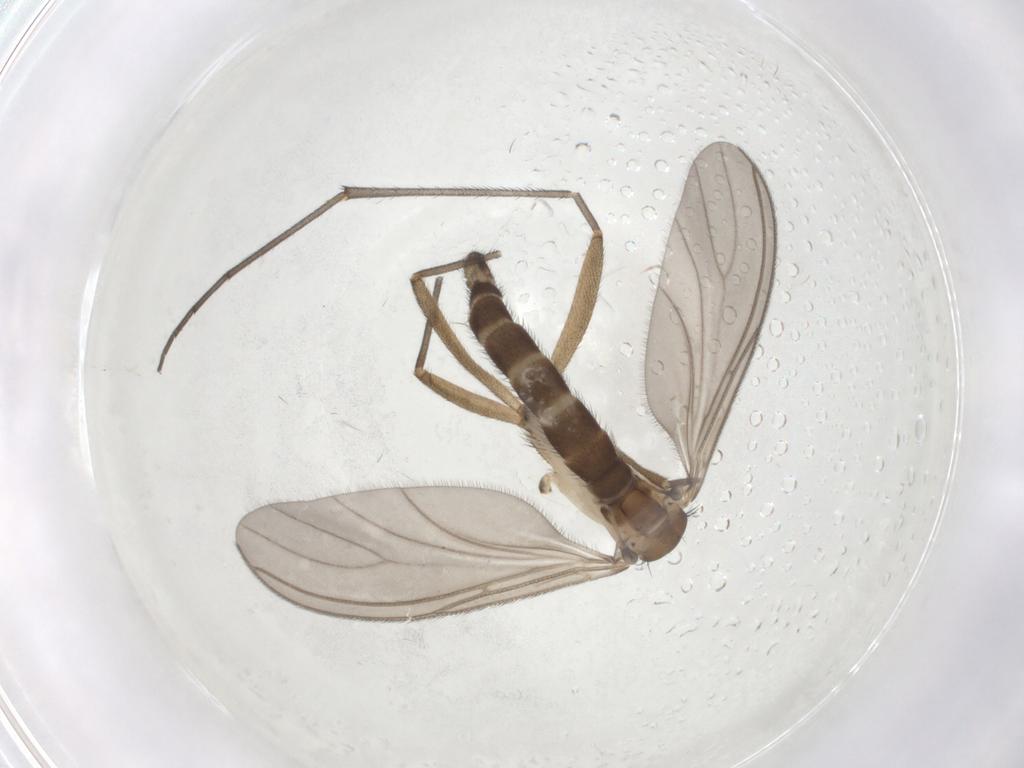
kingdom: Animalia
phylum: Arthropoda
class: Insecta
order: Diptera
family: Sciaridae
